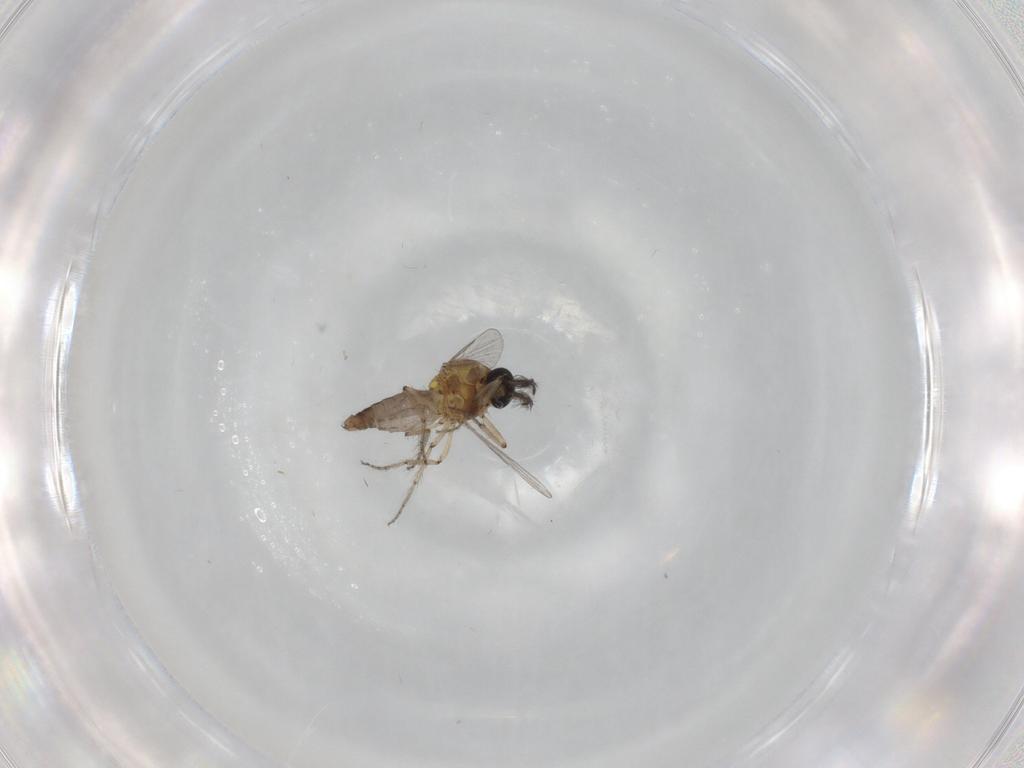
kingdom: Animalia
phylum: Arthropoda
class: Insecta
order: Diptera
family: Ceratopogonidae
